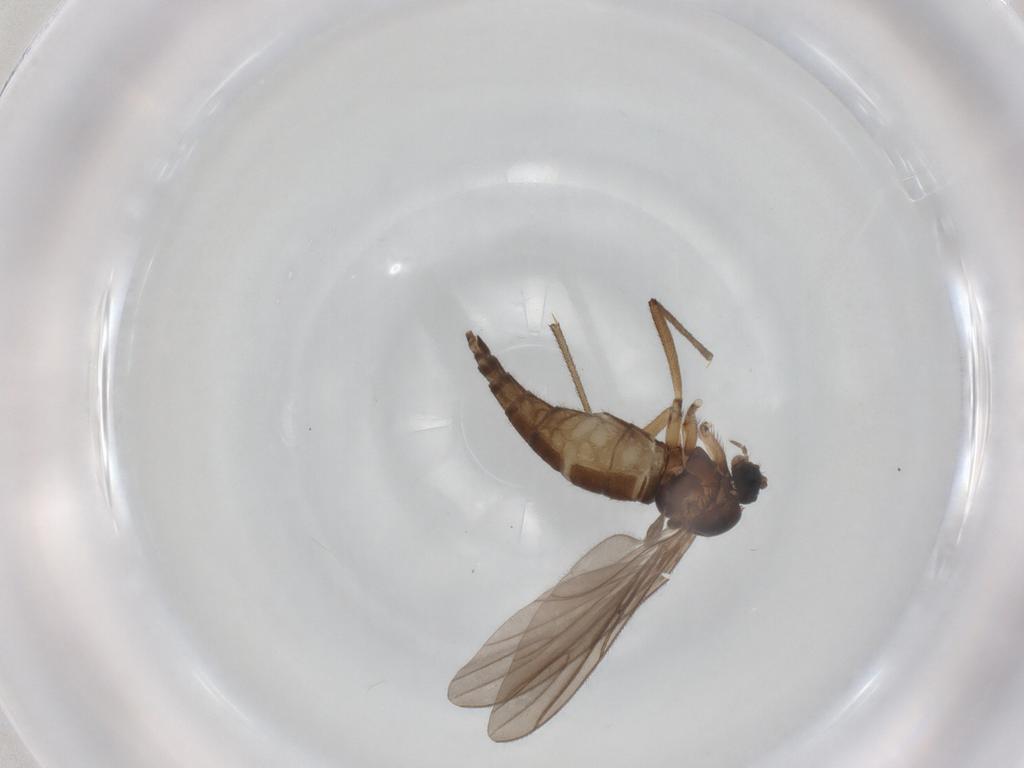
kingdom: Animalia
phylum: Arthropoda
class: Insecta
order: Diptera
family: Sciaridae
